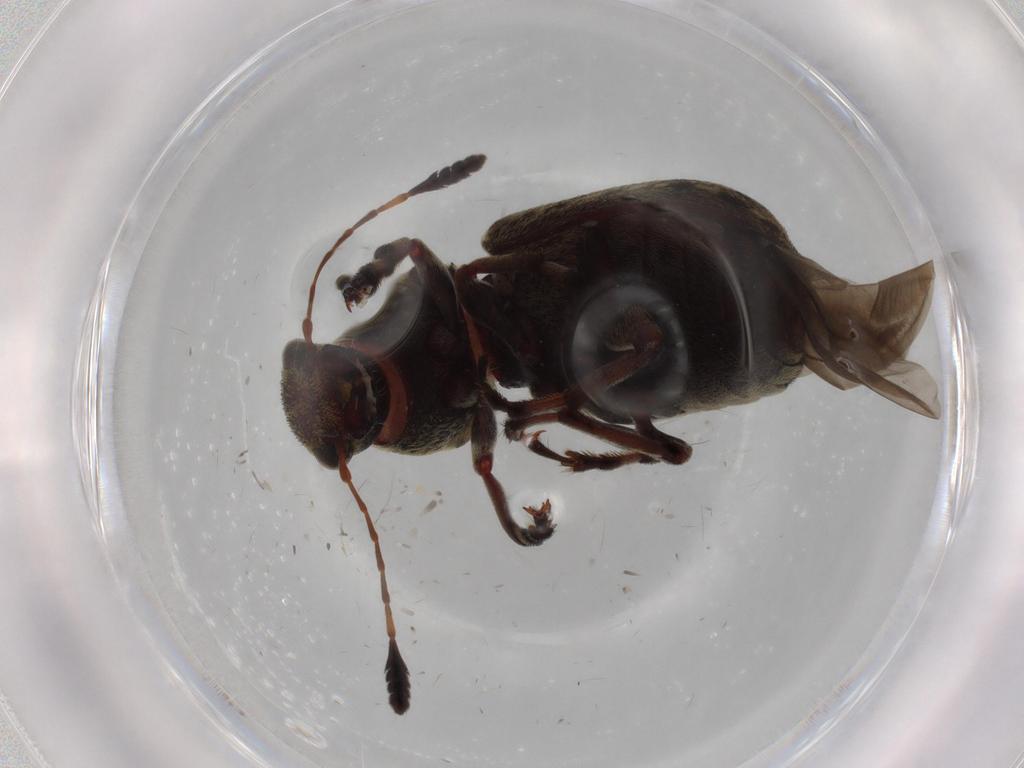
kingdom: Animalia
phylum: Arthropoda
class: Insecta
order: Coleoptera
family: Anthribidae
